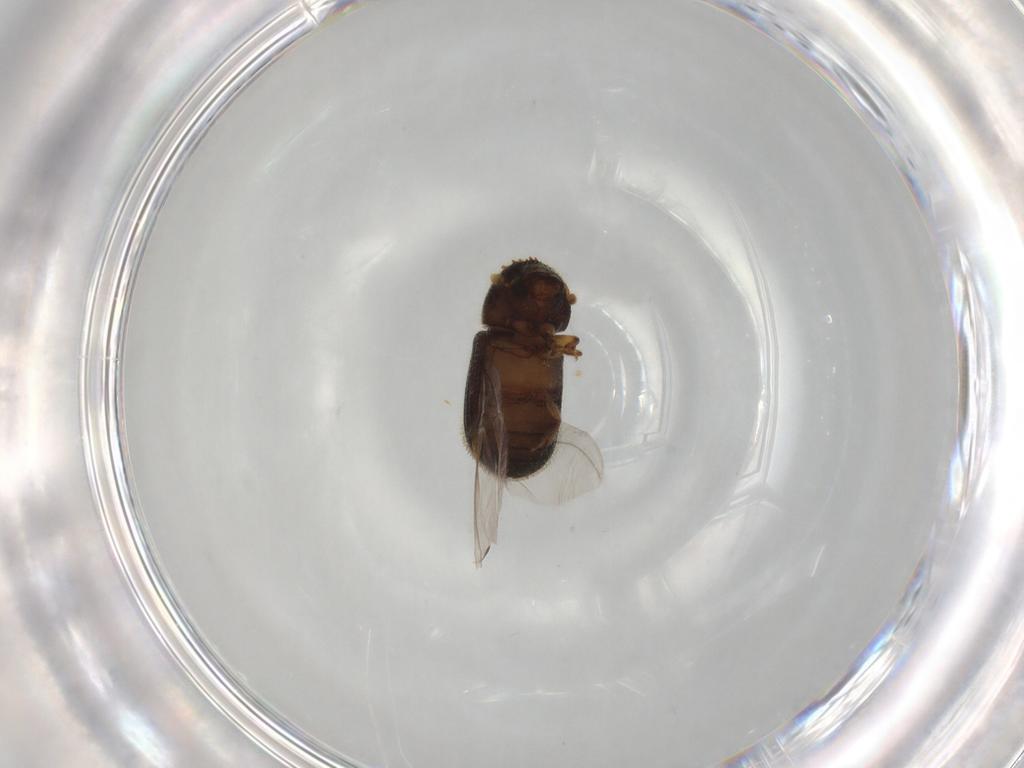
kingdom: Animalia
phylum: Arthropoda
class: Insecta
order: Coleoptera
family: Curculionidae
